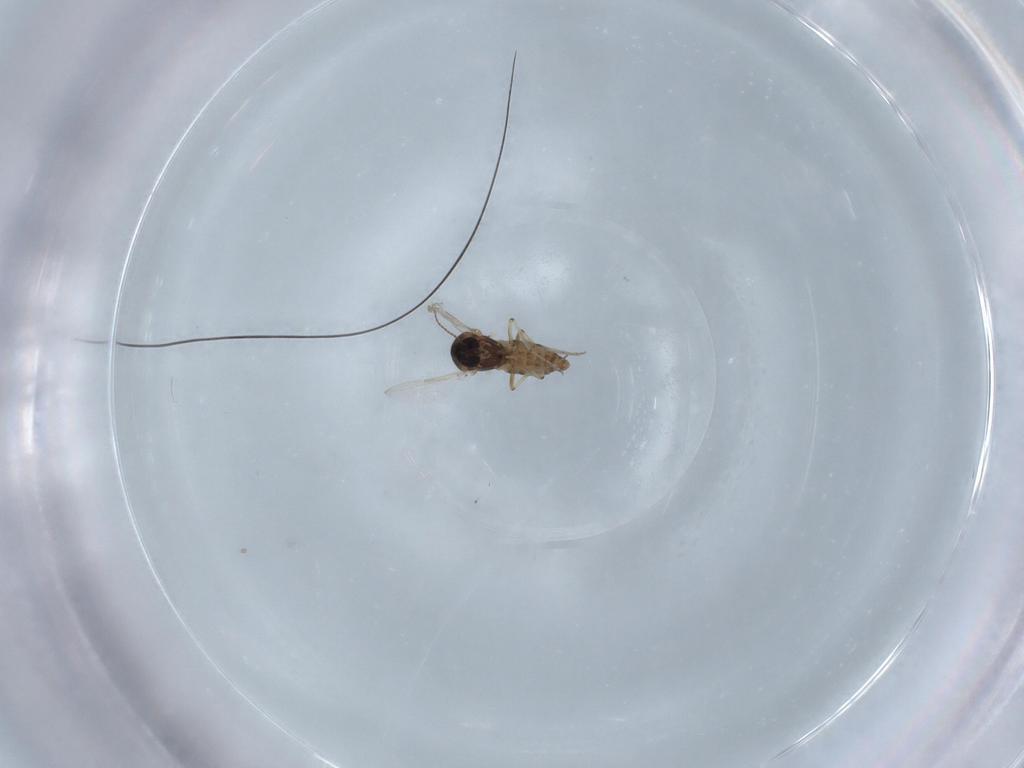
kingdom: Animalia
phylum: Arthropoda
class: Insecta
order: Diptera
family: Ceratopogonidae
